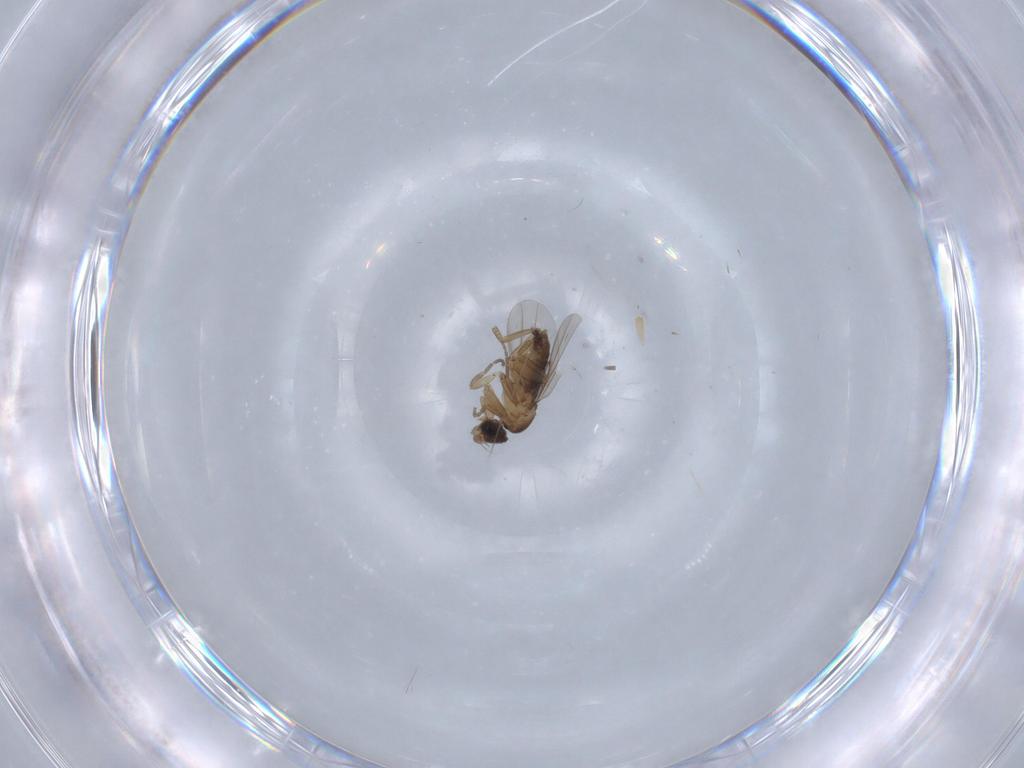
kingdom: Animalia
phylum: Arthropoda
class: Insecta
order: Diptera
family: Phoridae
